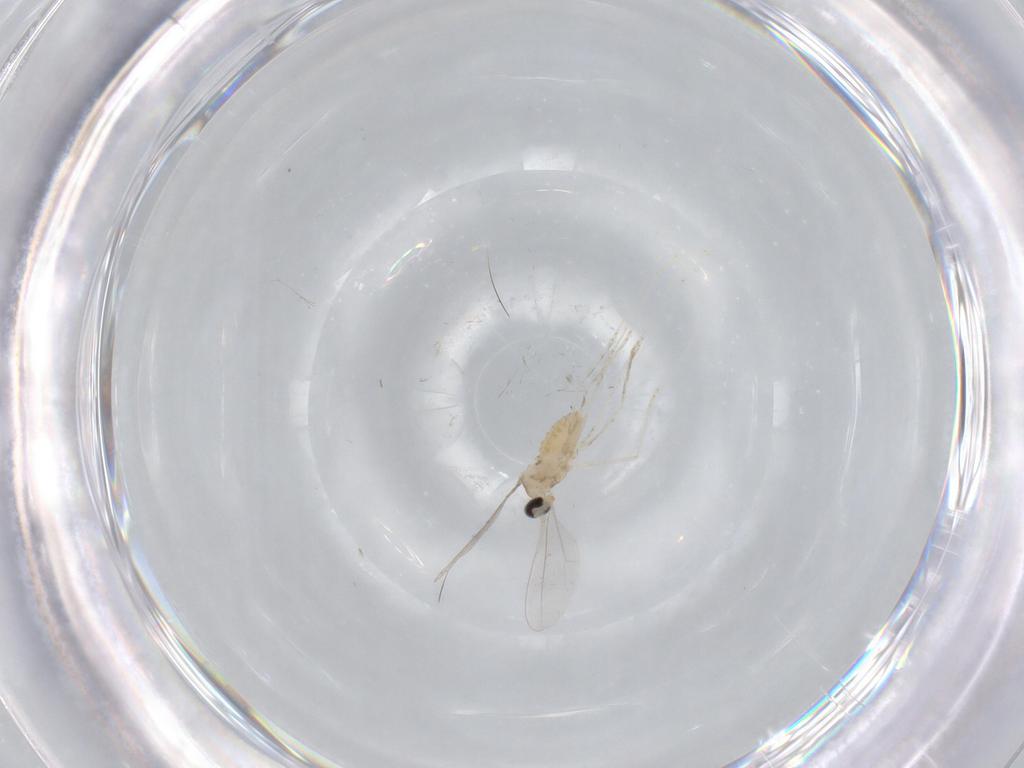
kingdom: Animalia
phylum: Arthropoda
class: Insecta
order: Diptera
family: Cecidomyiidae
